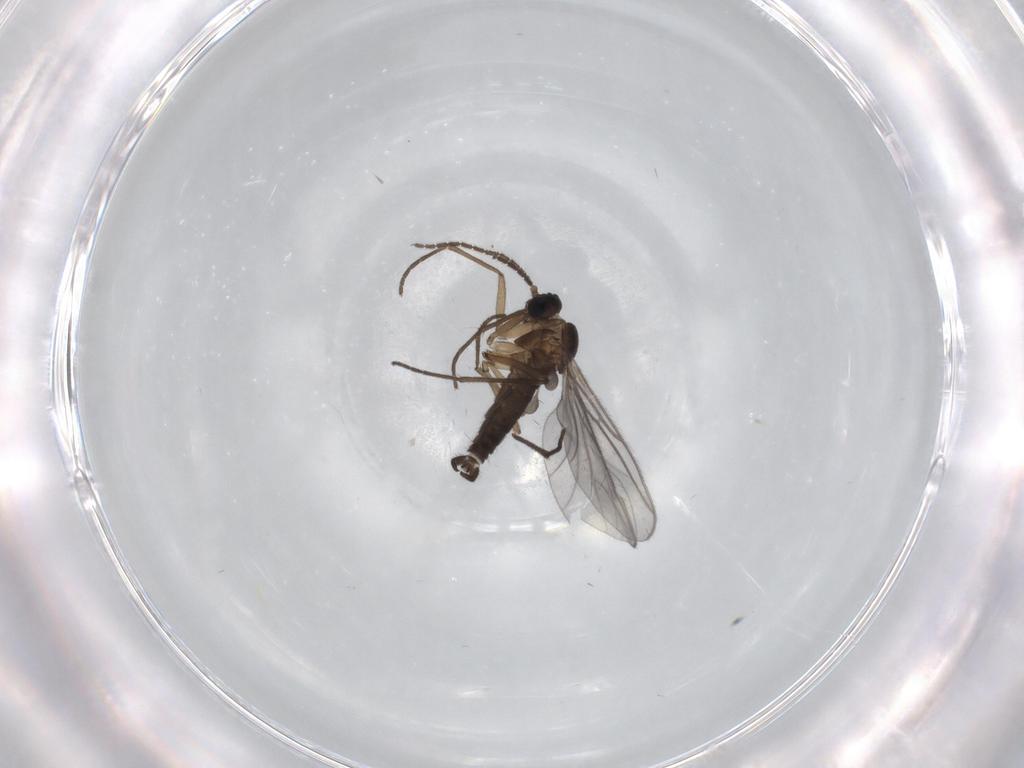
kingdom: Animalia
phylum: Arthropoda
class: Insecta
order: Diptera
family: Sciaridae
